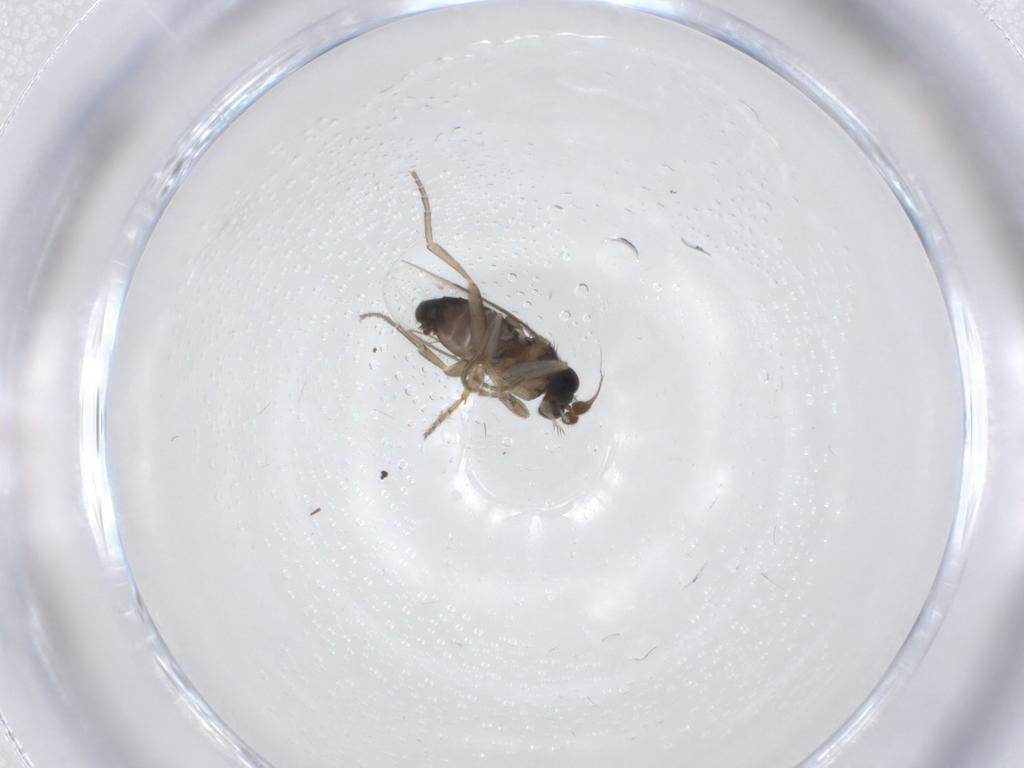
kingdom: Animalia
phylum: Arthropoda
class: Insecta
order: Diptera
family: Phoridae
